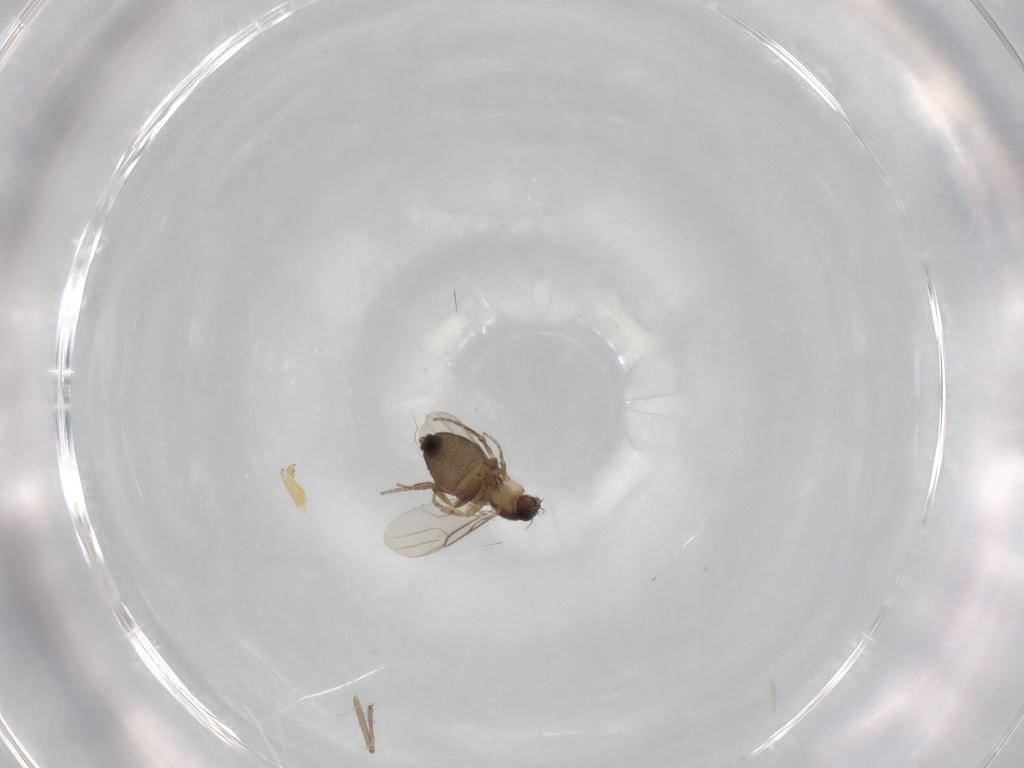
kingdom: Animalia
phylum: Arthropoda
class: Insecta
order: Diptera
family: Phoridae
